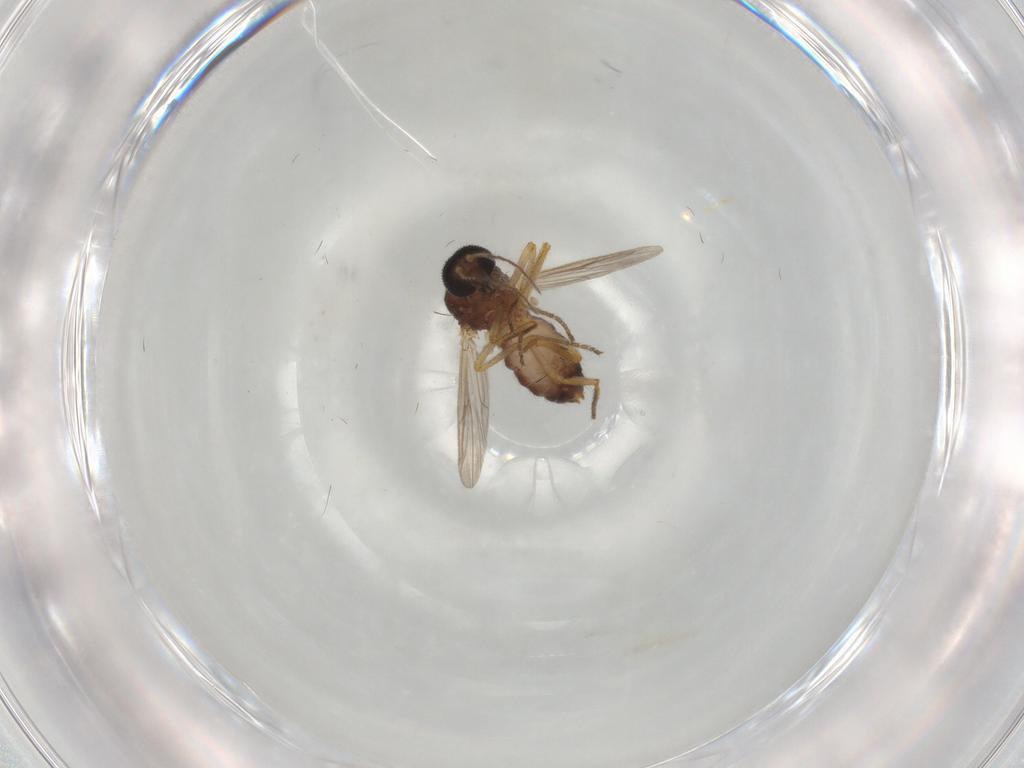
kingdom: Animalia
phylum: Arthropoda
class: Insecta
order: Diptera
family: Ceratopogonidae
